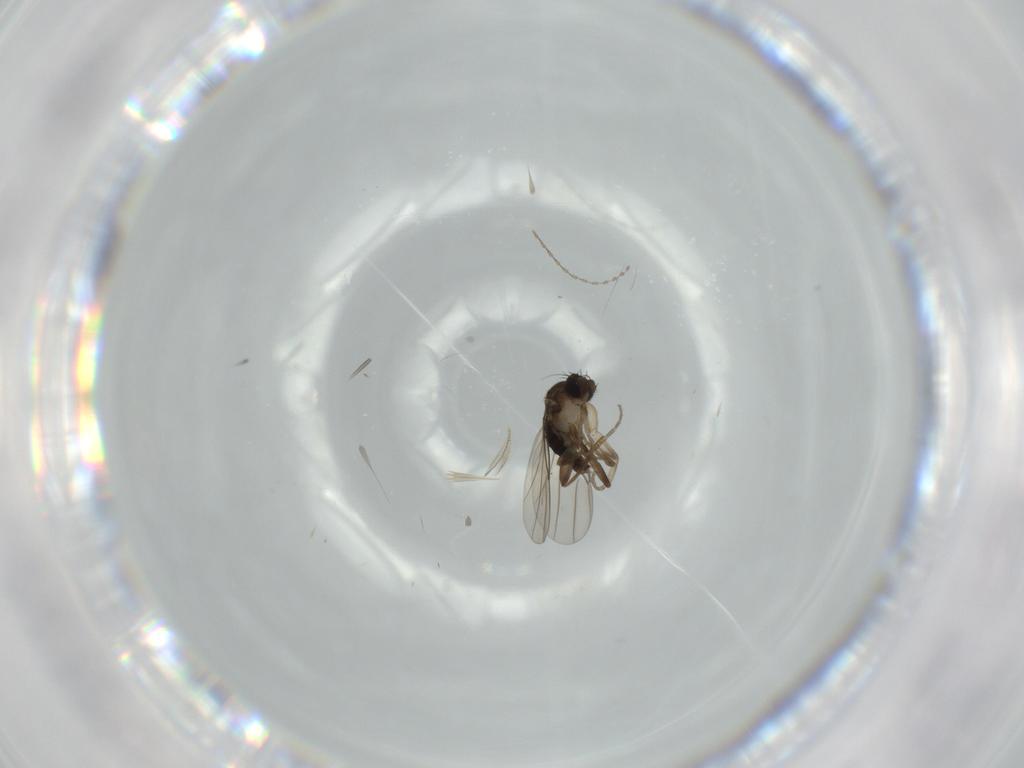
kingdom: Animalia
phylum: Arthropoda
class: Insecta
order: Diptera
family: Phoridae
